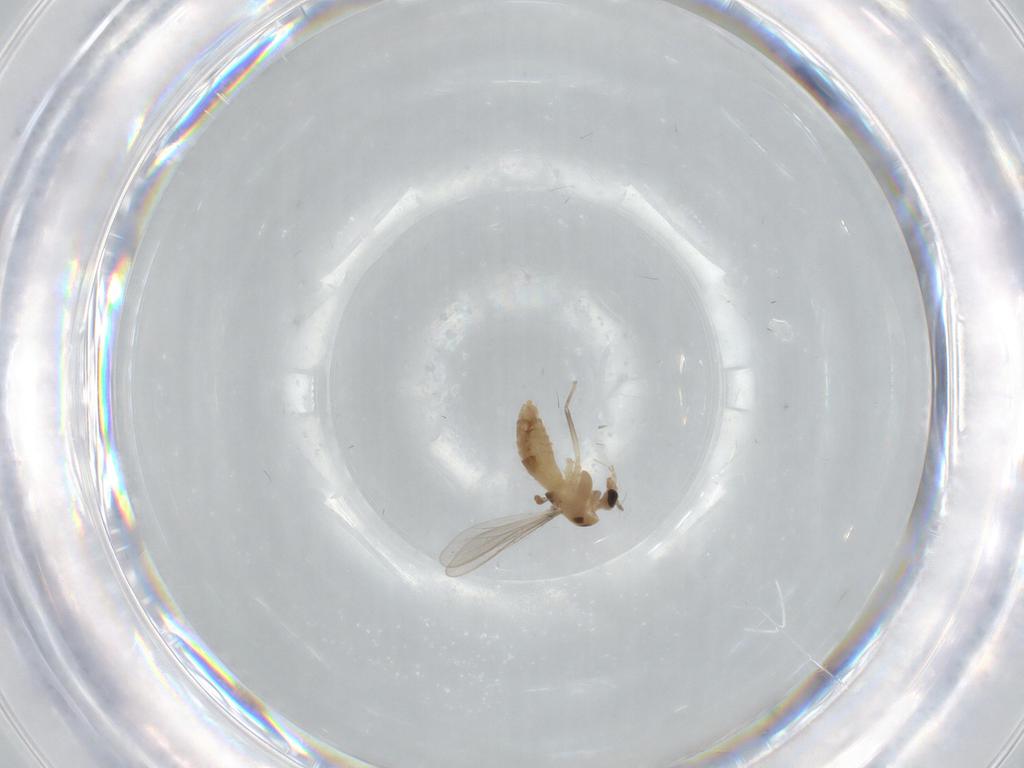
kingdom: Animalia
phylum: Arthropoda
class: Insecta
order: Diptera
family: Chironomidae
